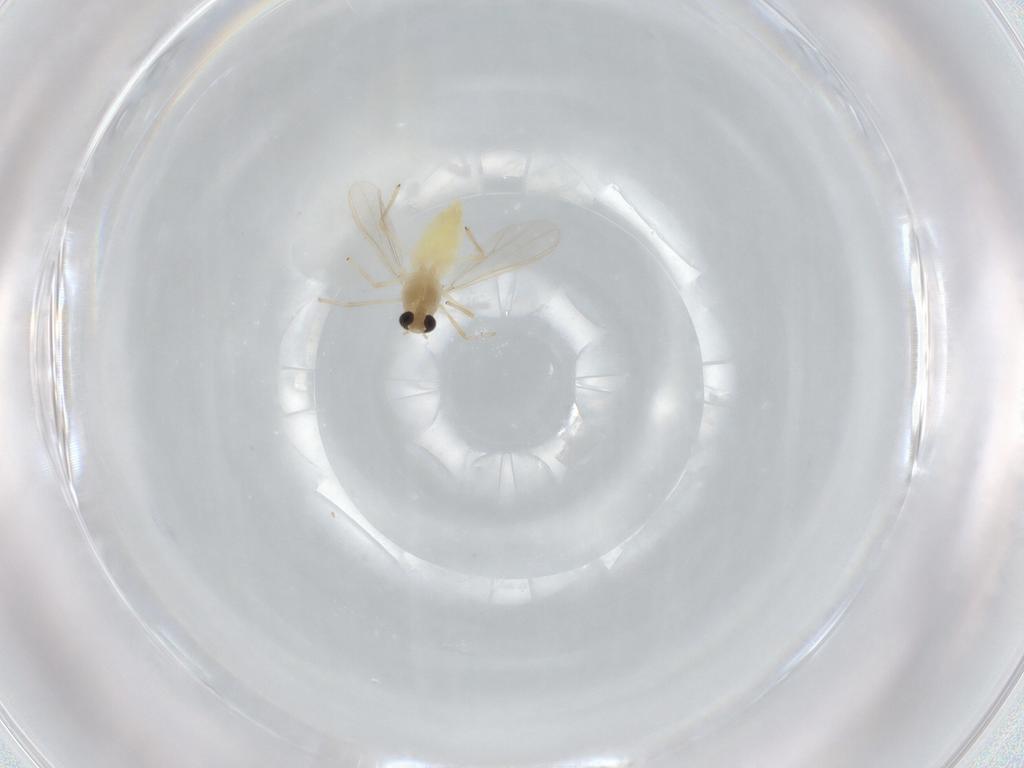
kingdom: Animalia
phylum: Arthropoda
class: Insecta
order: Diptera
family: Chironomidae
